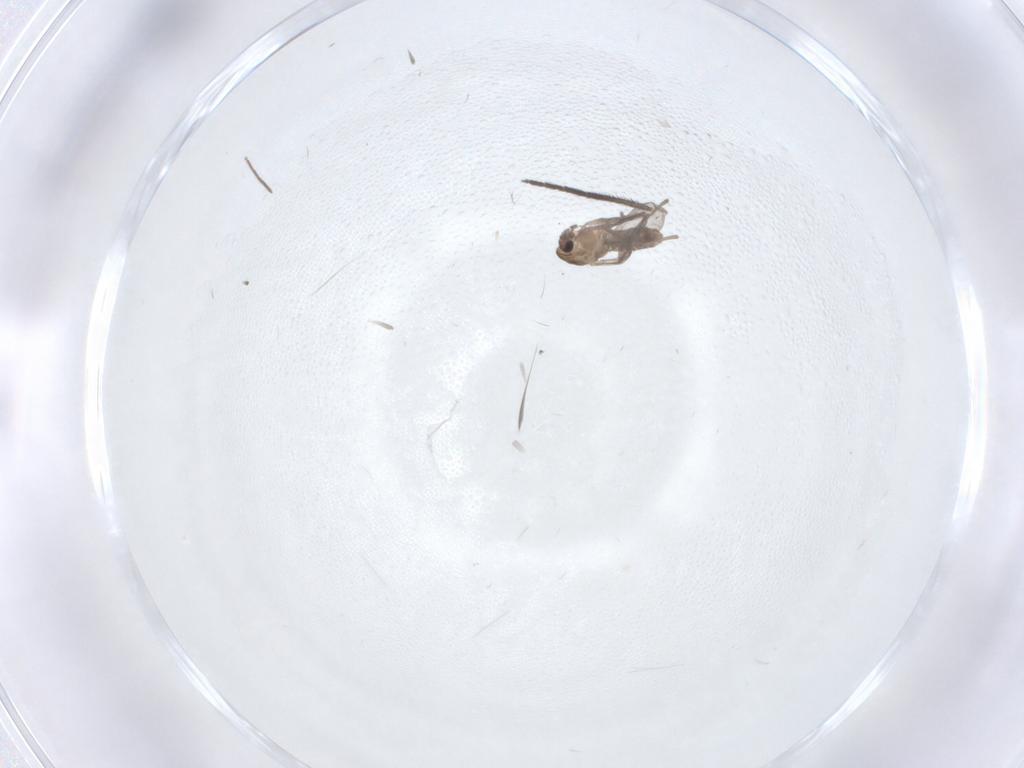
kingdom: Animalia
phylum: Arthropoda
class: Insecta
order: Diptera
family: Chironomidae
